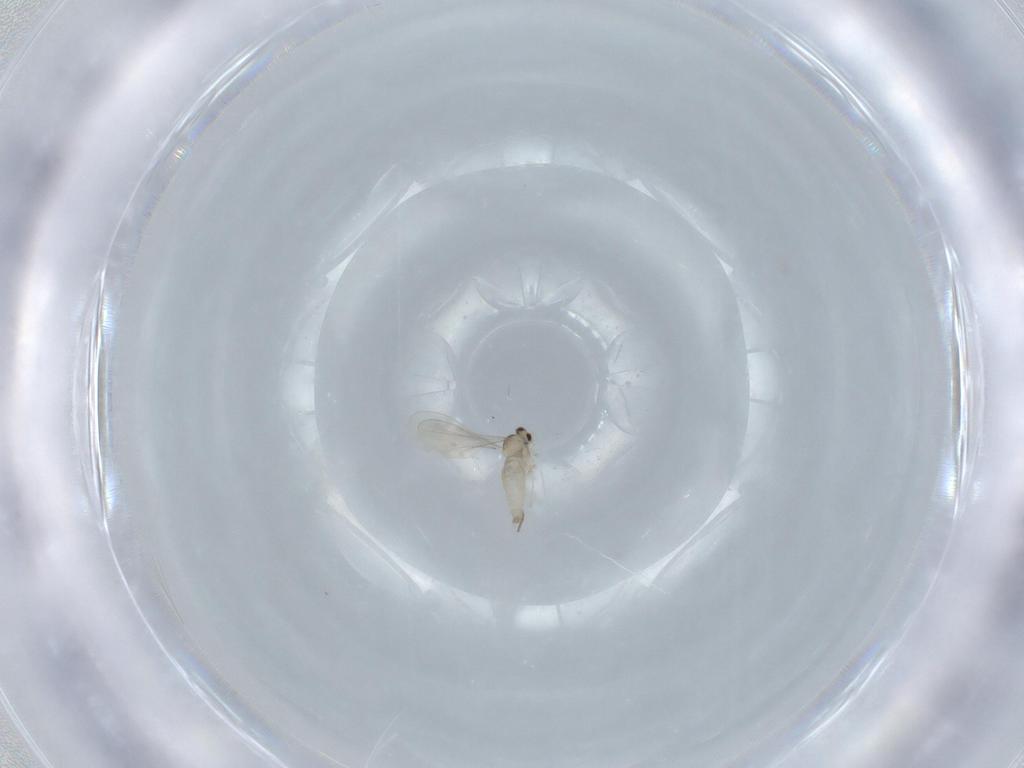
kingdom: Animalia
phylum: Arthropoda
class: Insecta
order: Diptera
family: Cecidomyiidae
